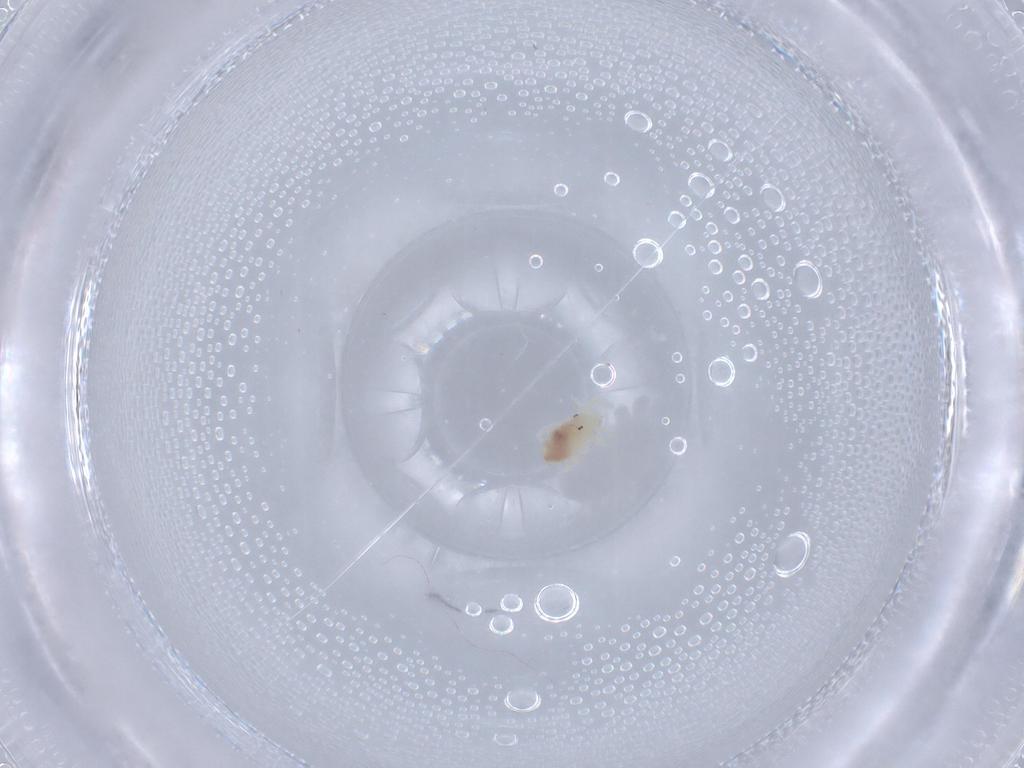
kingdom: Animalia
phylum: Arthropoda
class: Arachnida
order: Trombidiformes
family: Tydeidae
